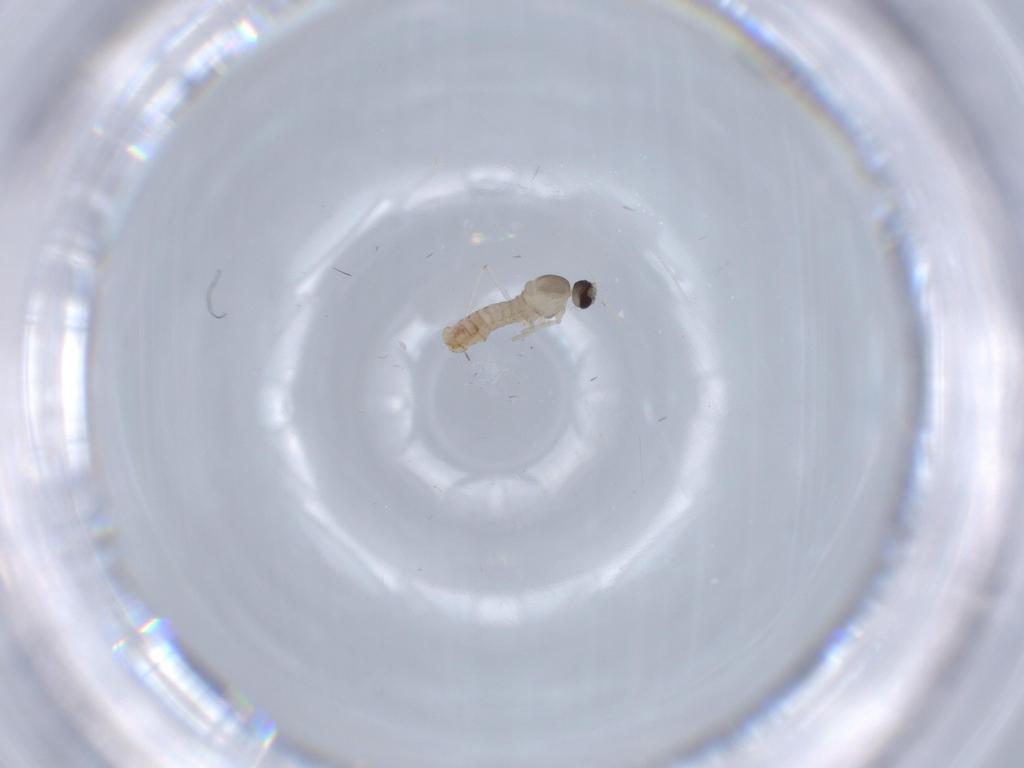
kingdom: Animalia
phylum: Arthropoda
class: Insecta
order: Diptera
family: Mycetophilidae
